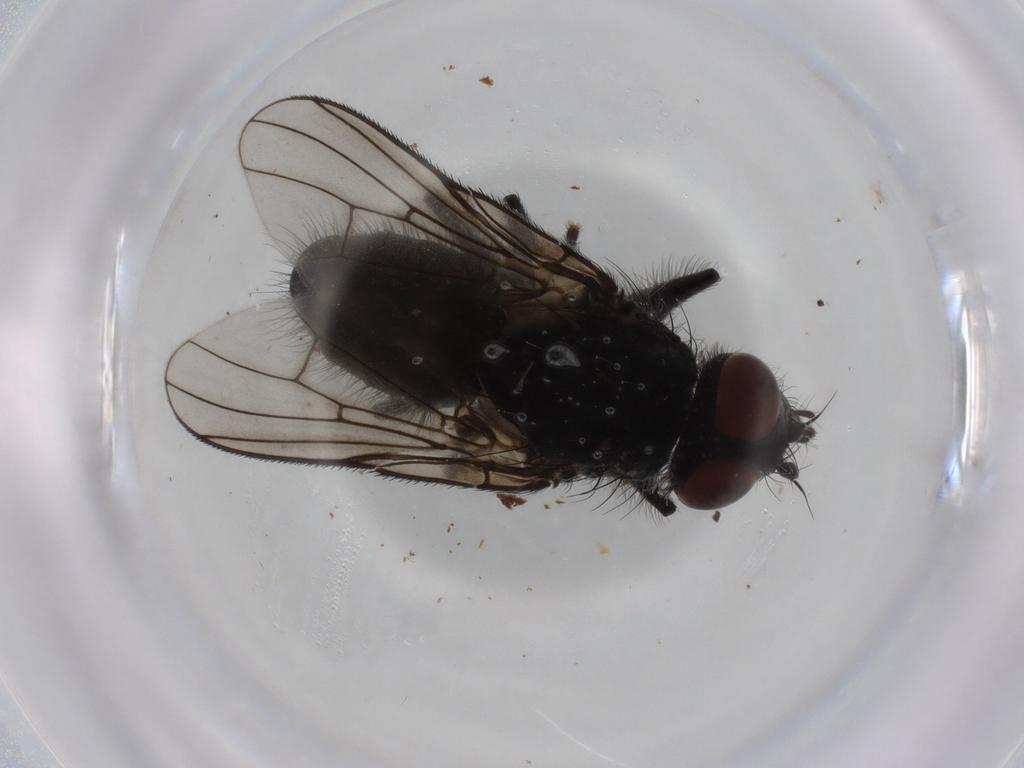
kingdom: Animalia
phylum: Arthropoda
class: Insecta
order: Diptera
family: Muscidae
